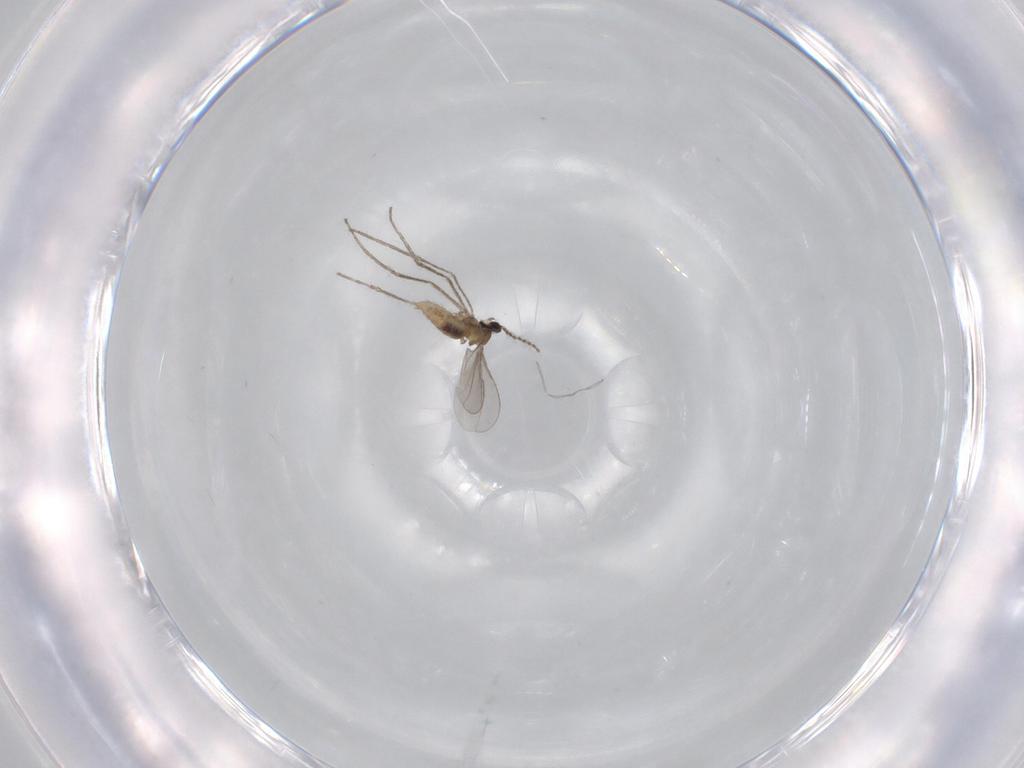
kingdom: Animalia
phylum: Arthropoda
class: Insecta
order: Diptera
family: Cecidomyiidae
